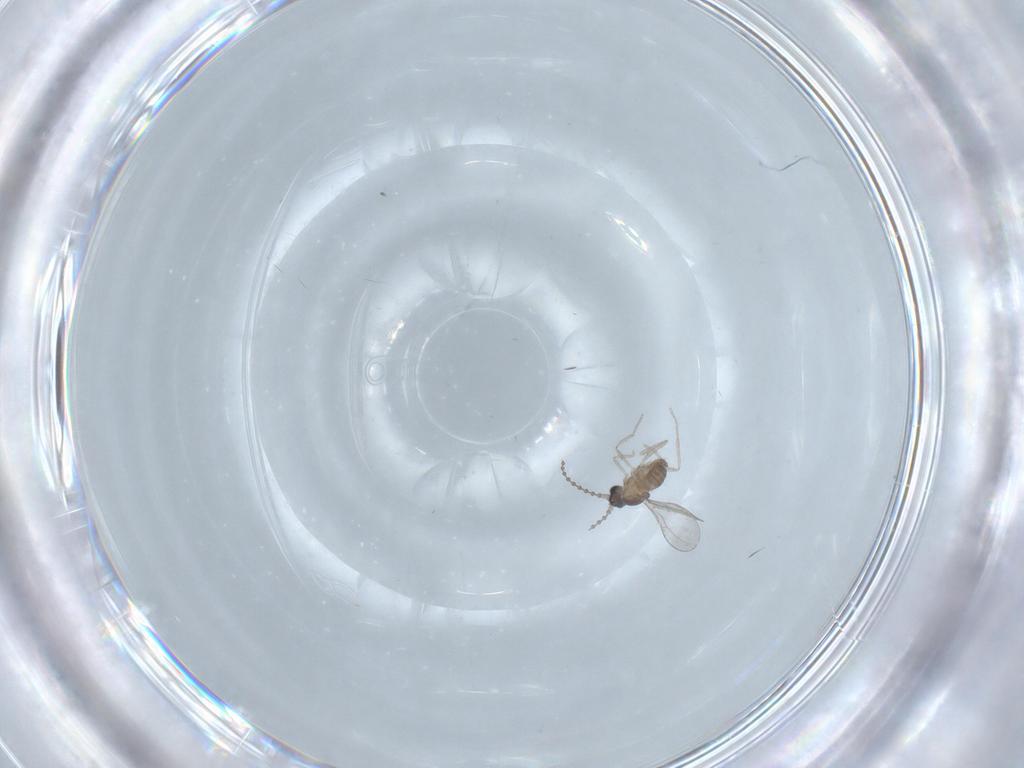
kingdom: Animalia
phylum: Arthropoda
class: Insecta
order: Diptera
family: Cecidomyiidae
